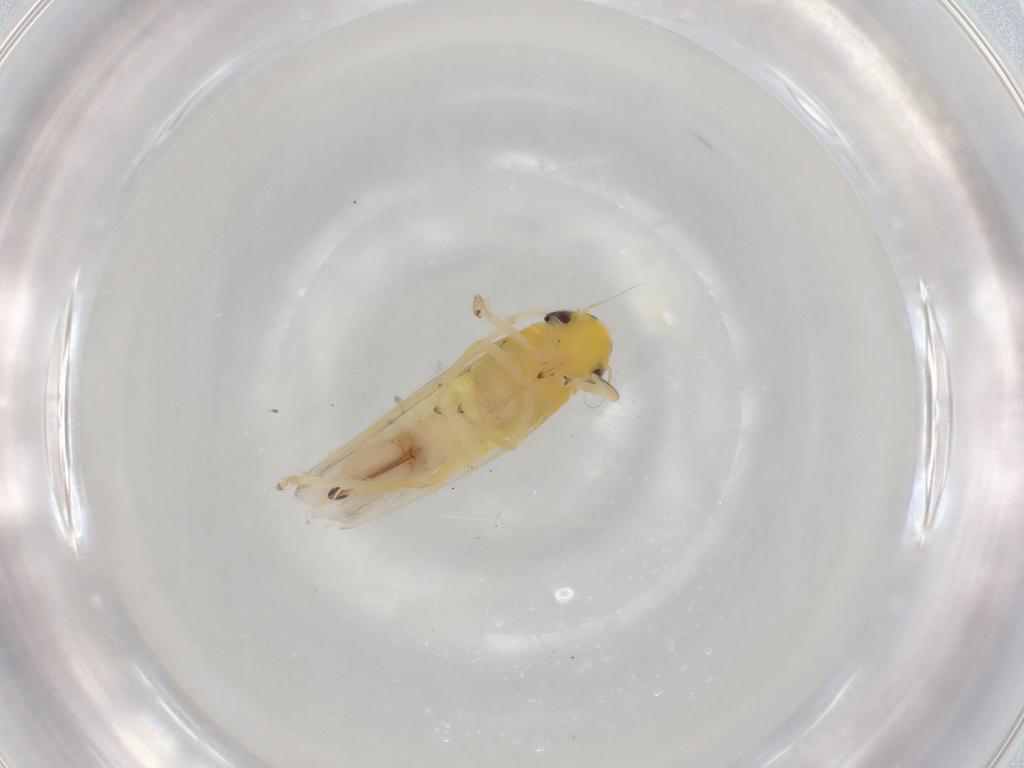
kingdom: Animalia
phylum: Arthropoda
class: Insecta
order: Hemiptera
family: Cicadellidae
